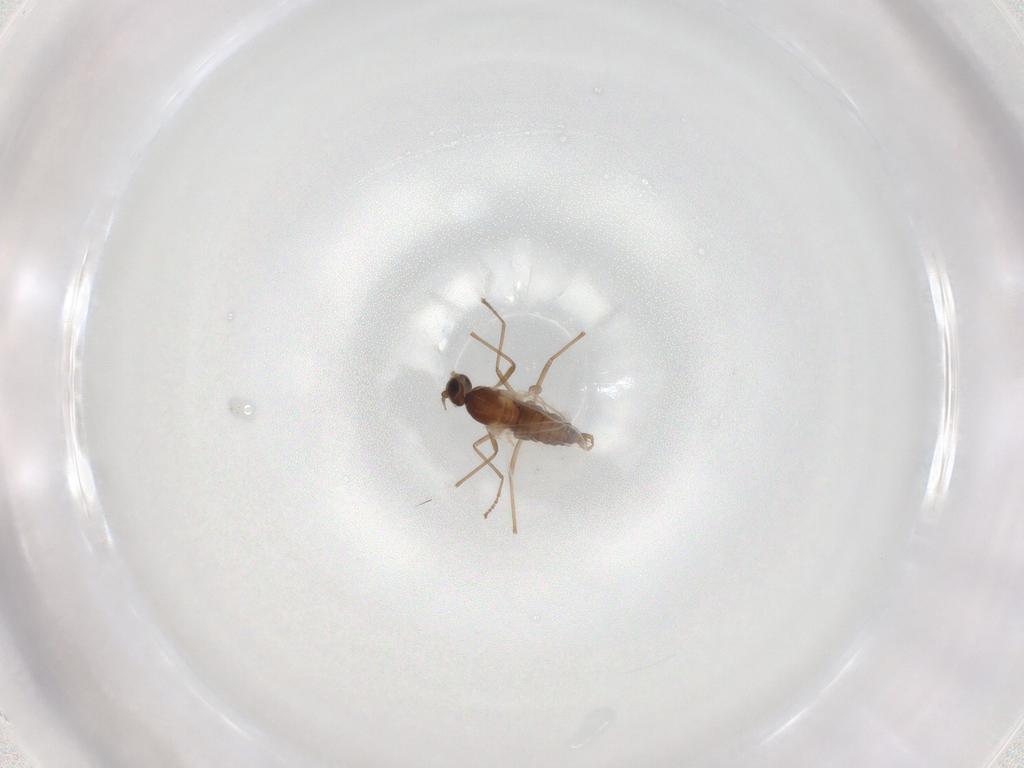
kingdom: Animalia
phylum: Arthropoda
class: Insecta
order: Diptera
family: Cecidomyiidae
